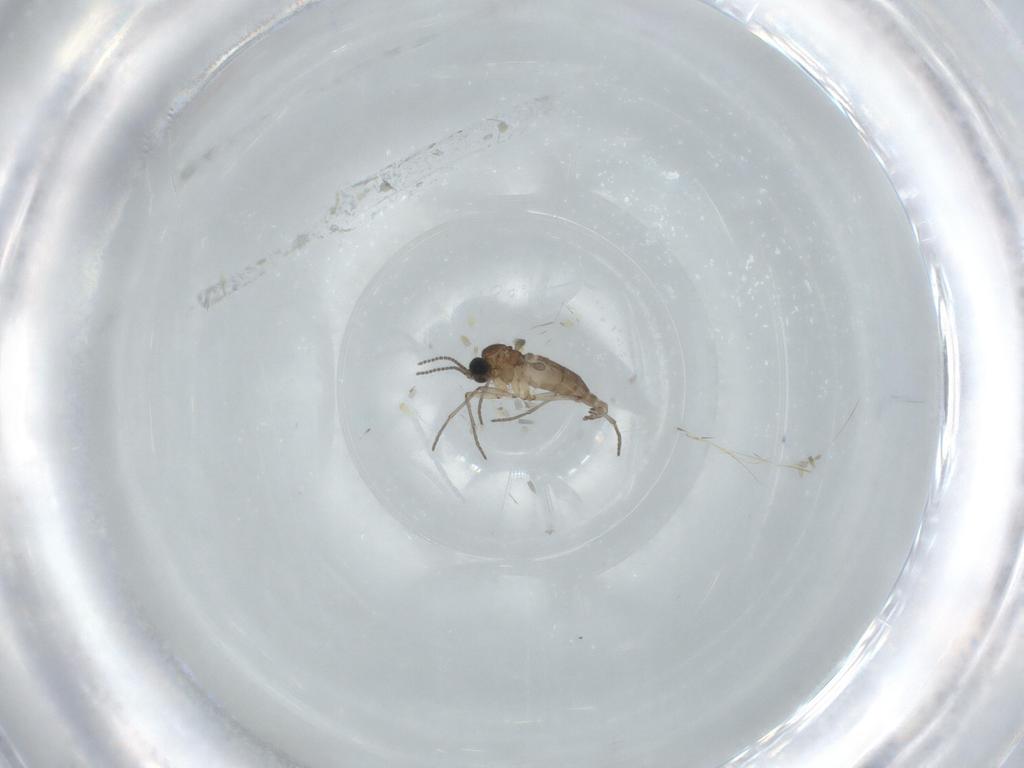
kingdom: Animalia
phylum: Arthropoda
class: Insecta
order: Diptera
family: Sciaridae
